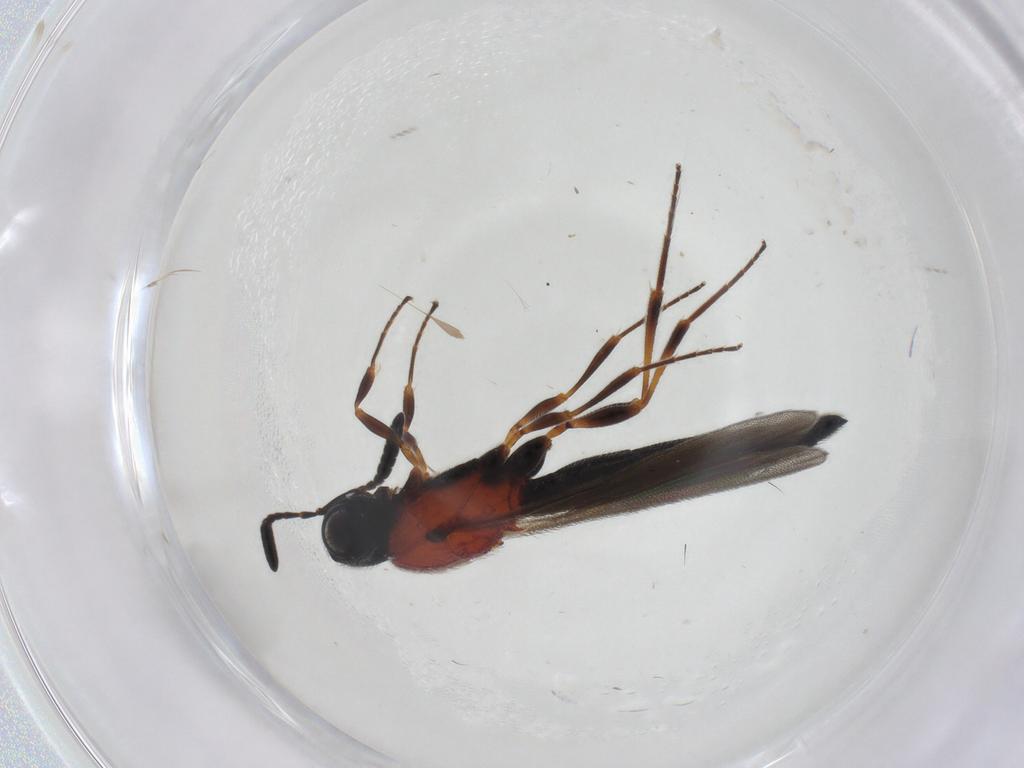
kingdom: Animalia
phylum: Arthropoda
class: Insecta
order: Hymenoptera
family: Scelionidae
